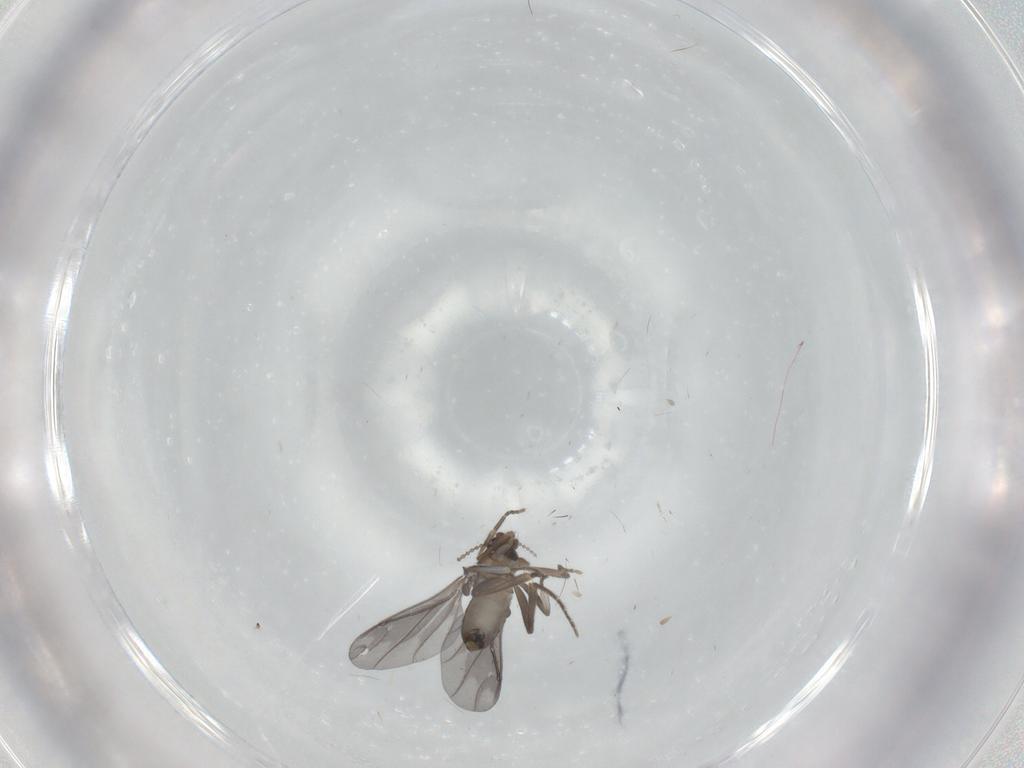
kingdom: Animalia
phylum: Arthropoda
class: Insecta
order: Diptera
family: Cecidomyiidae
